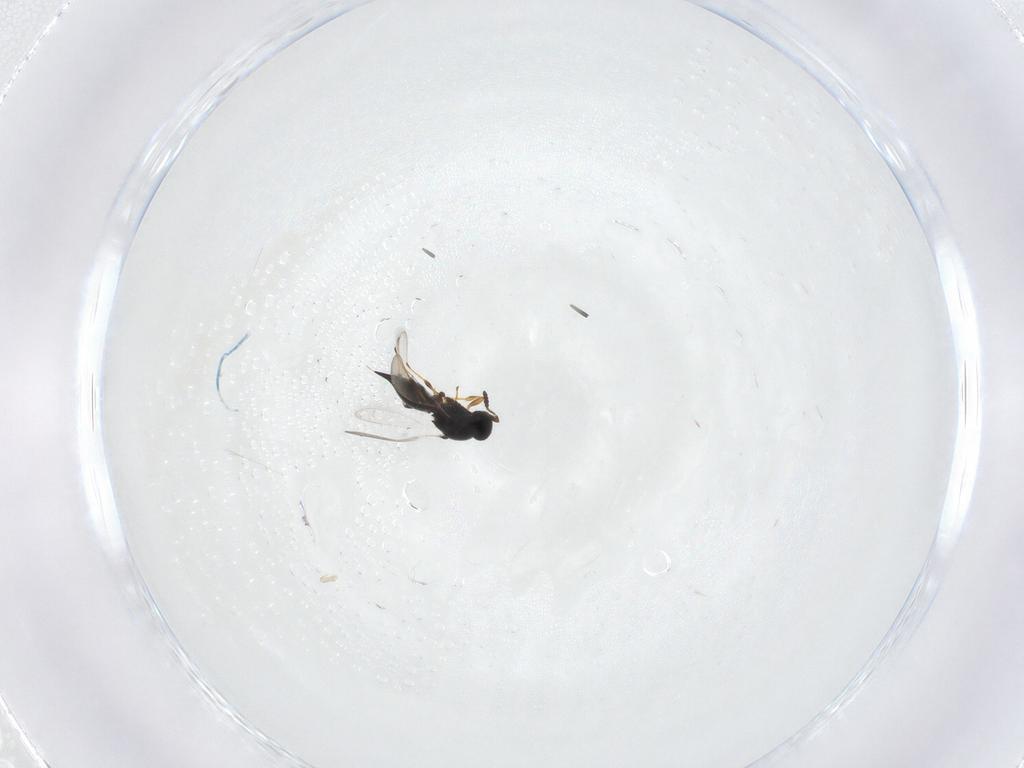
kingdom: Animalia
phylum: Arthropoda
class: Insecta
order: Hymenoptera
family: Platygastridae
